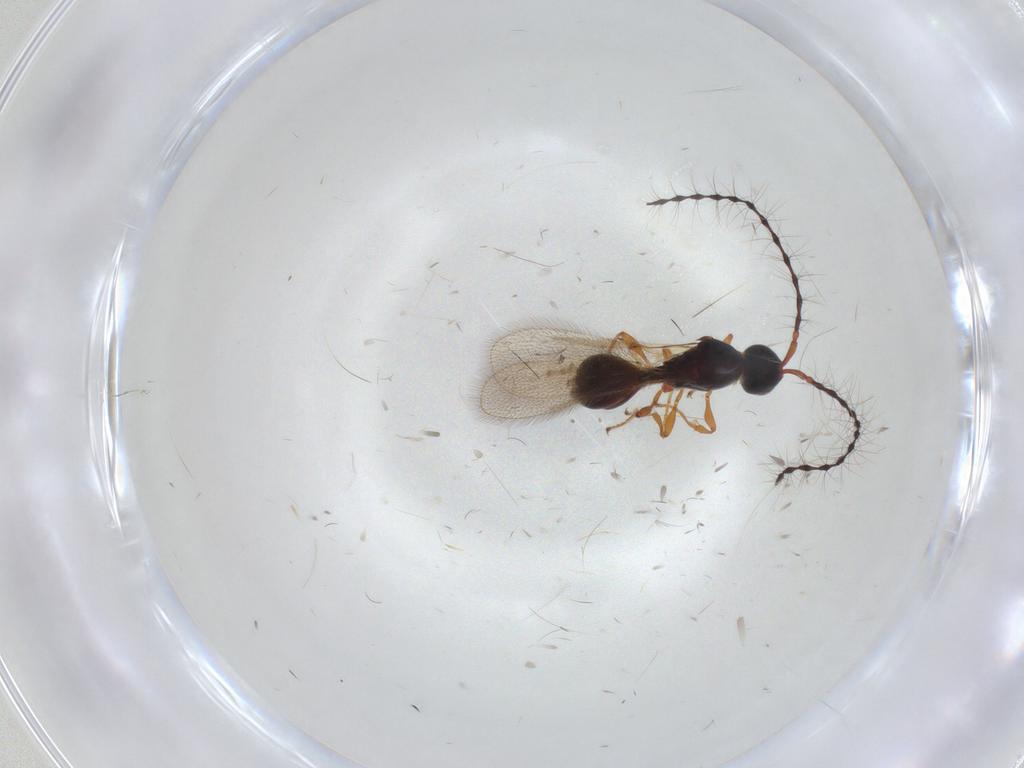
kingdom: Animalia
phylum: Arthropoda
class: Insecta
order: Hymenoptera
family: Diapriidae
